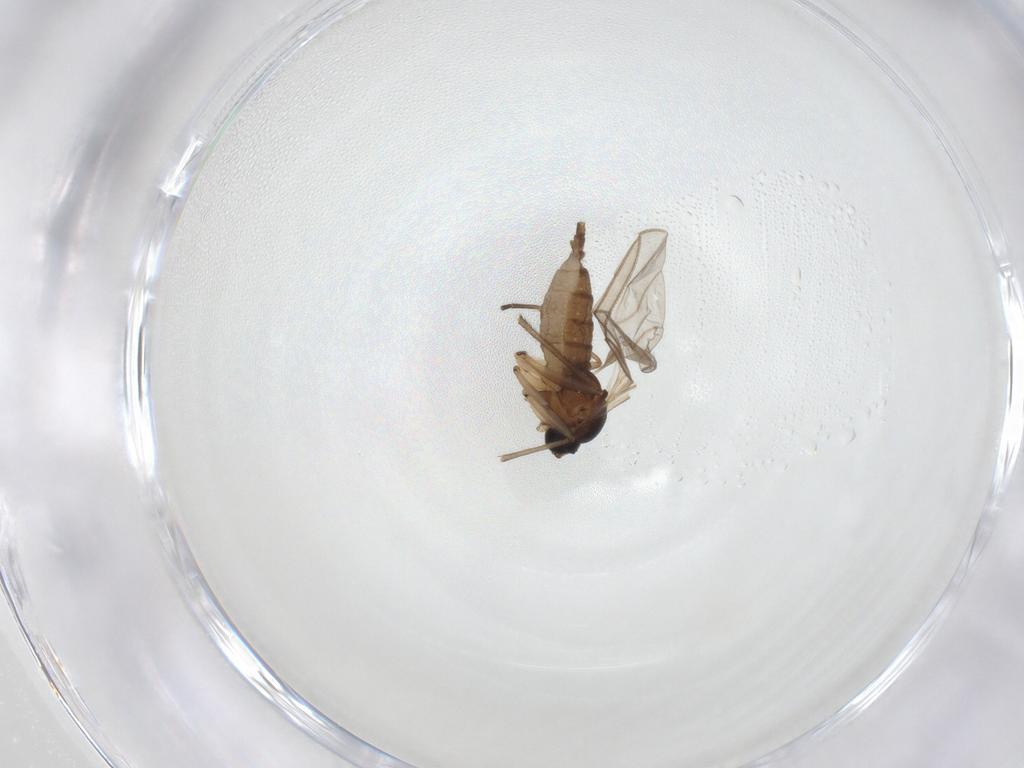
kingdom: Animalia
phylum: Arthropoda
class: Insecta
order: Diptera
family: Sciaridae
